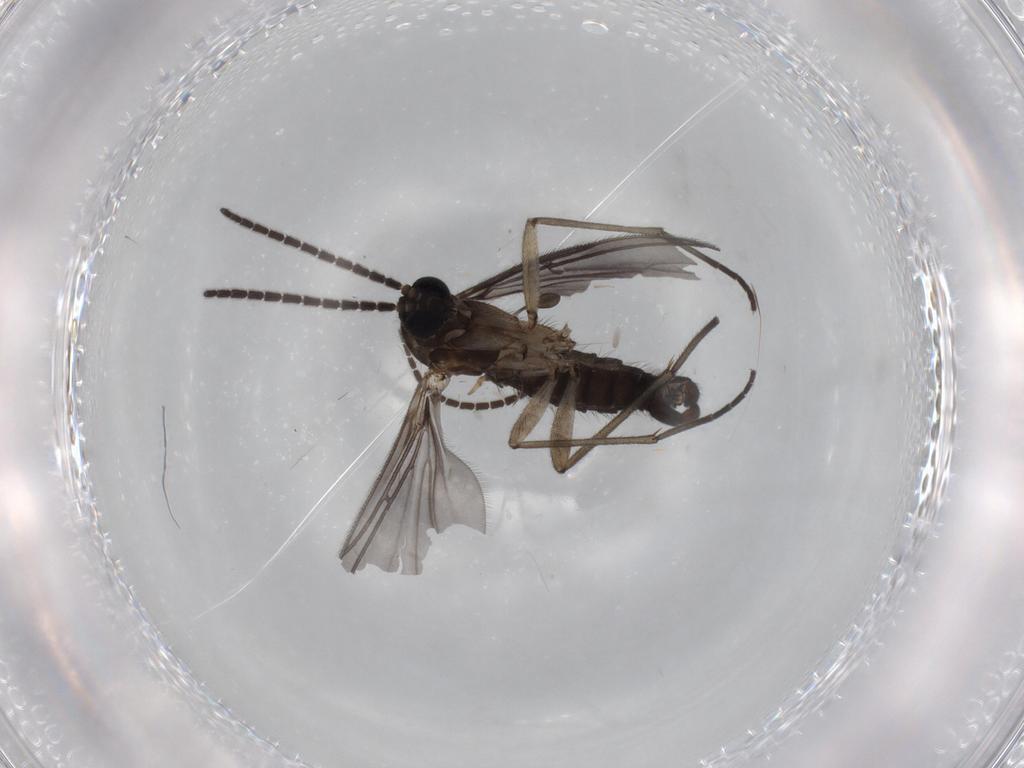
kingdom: Animalia
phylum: Arthropoda
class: Insecta
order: Diptera
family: Sciaridae
